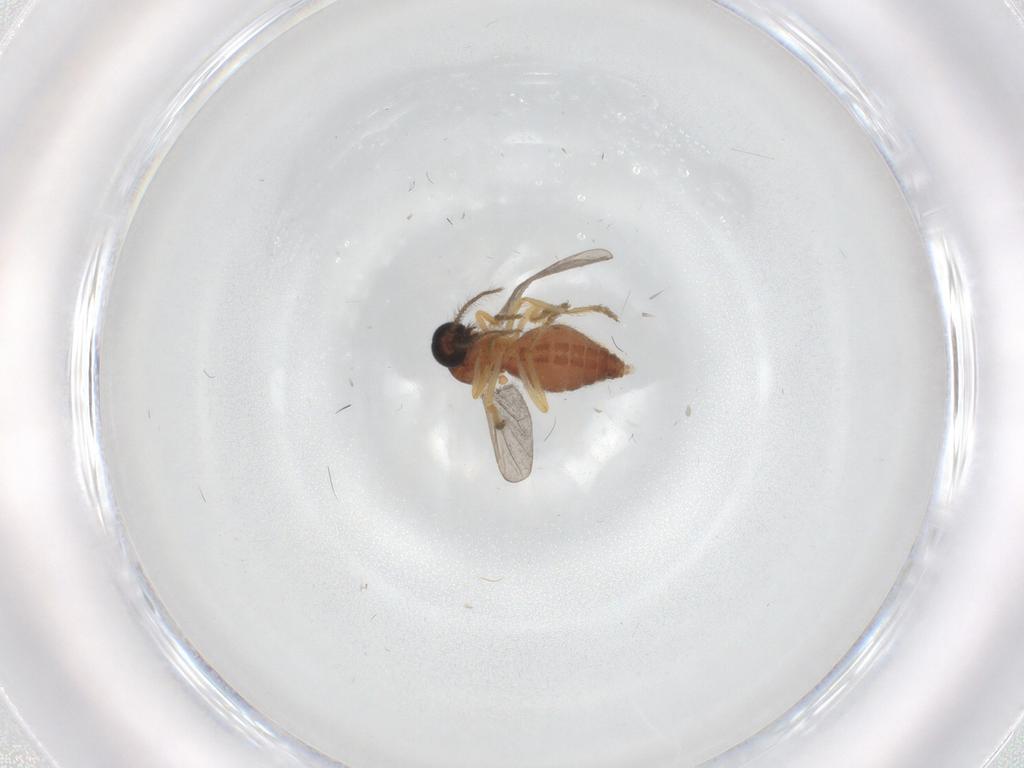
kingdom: Animalia
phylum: Arthropoda
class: Insecta
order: Diptera
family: Ceratopogonidae
